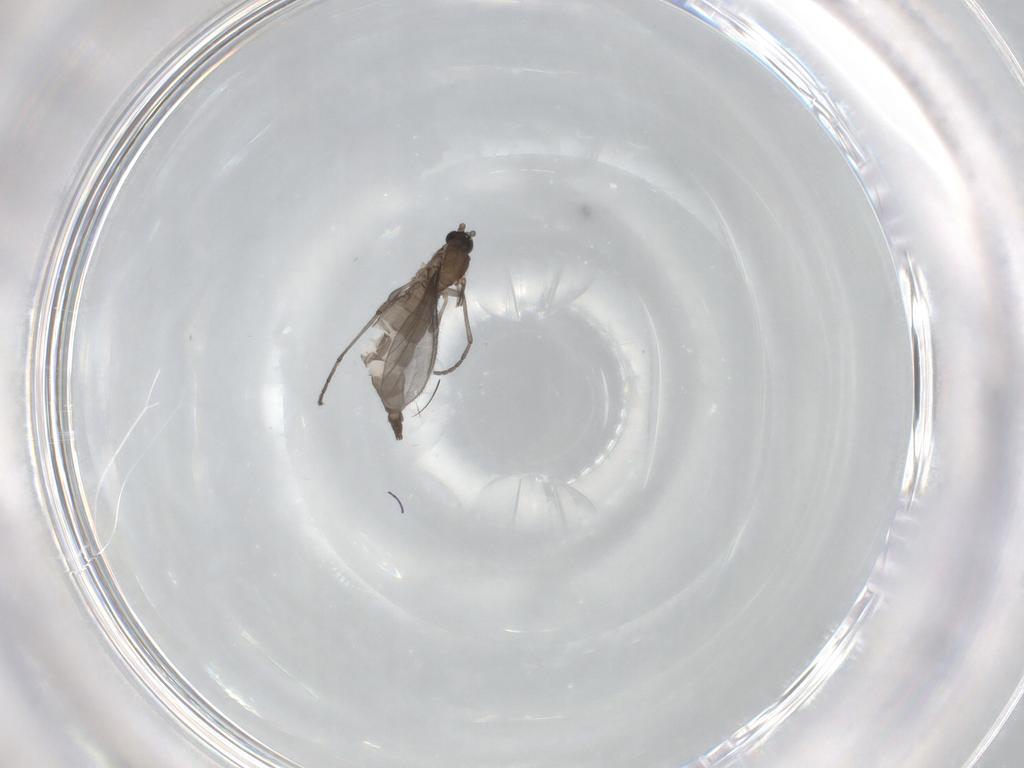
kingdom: Animalia
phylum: Arthropoda
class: Insecta
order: Diptera
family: Sciaridae
